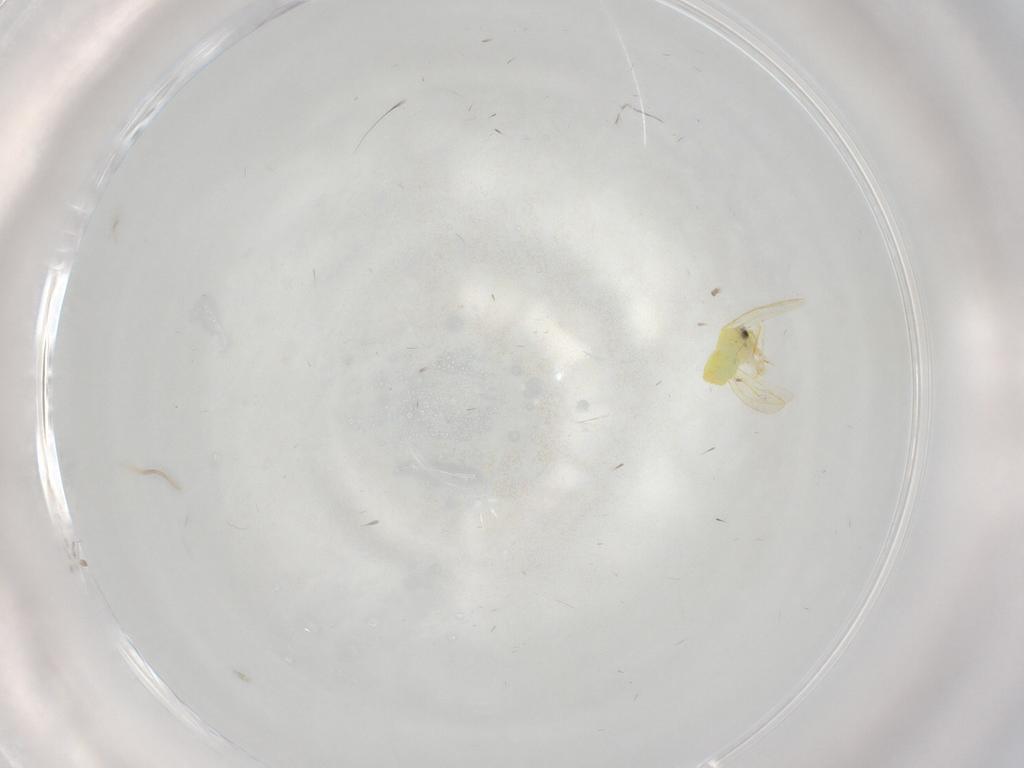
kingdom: Animalia
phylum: Arthropoda
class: Insecta
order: Hemiptera
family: Aleyrodidae
